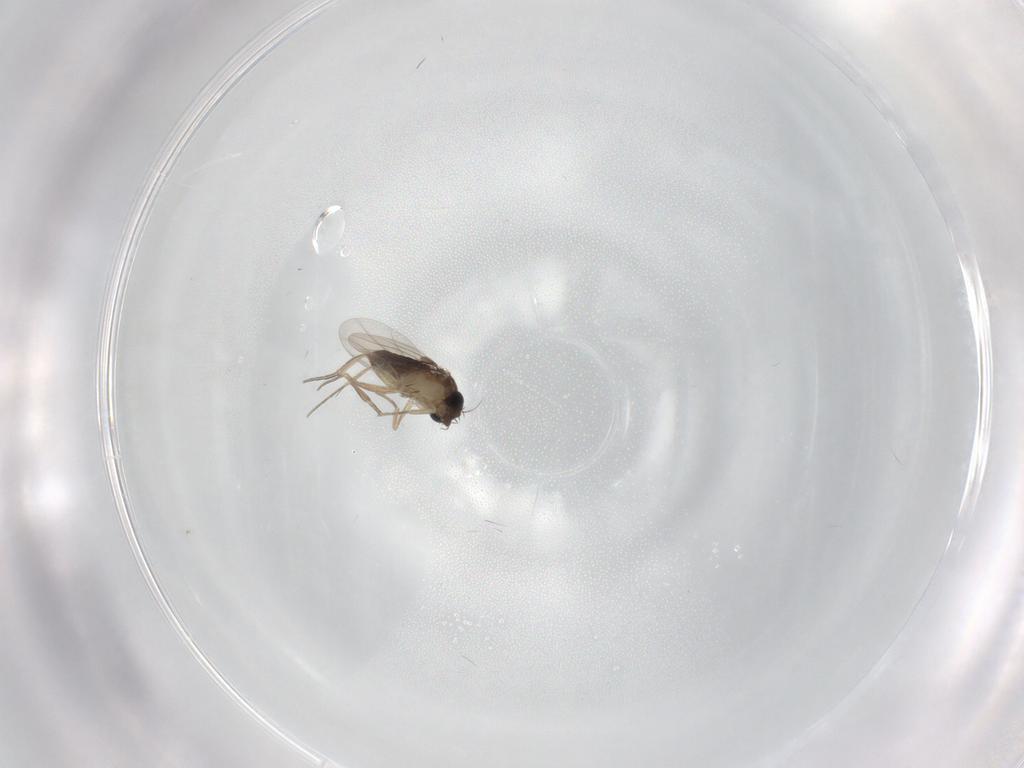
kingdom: Animalia
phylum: Arthropoda
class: Insecta
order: Diptera
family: Phoridae
